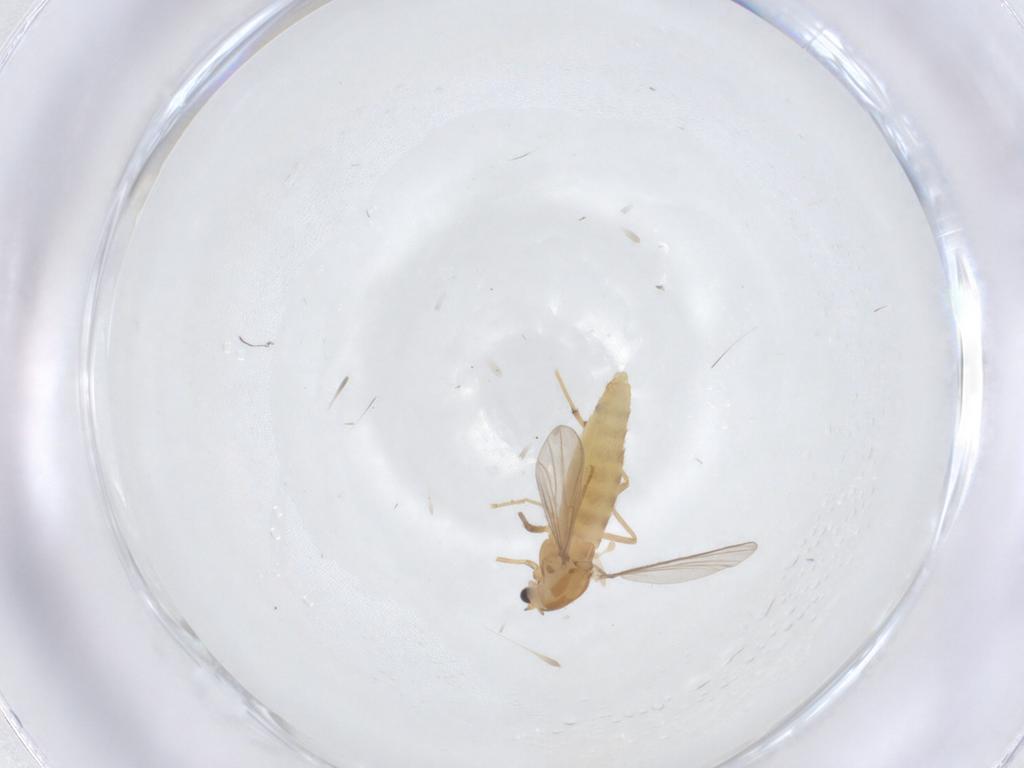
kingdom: Animalia
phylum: Arthropoda
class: Insecta
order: Diptera
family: Chironomidae
